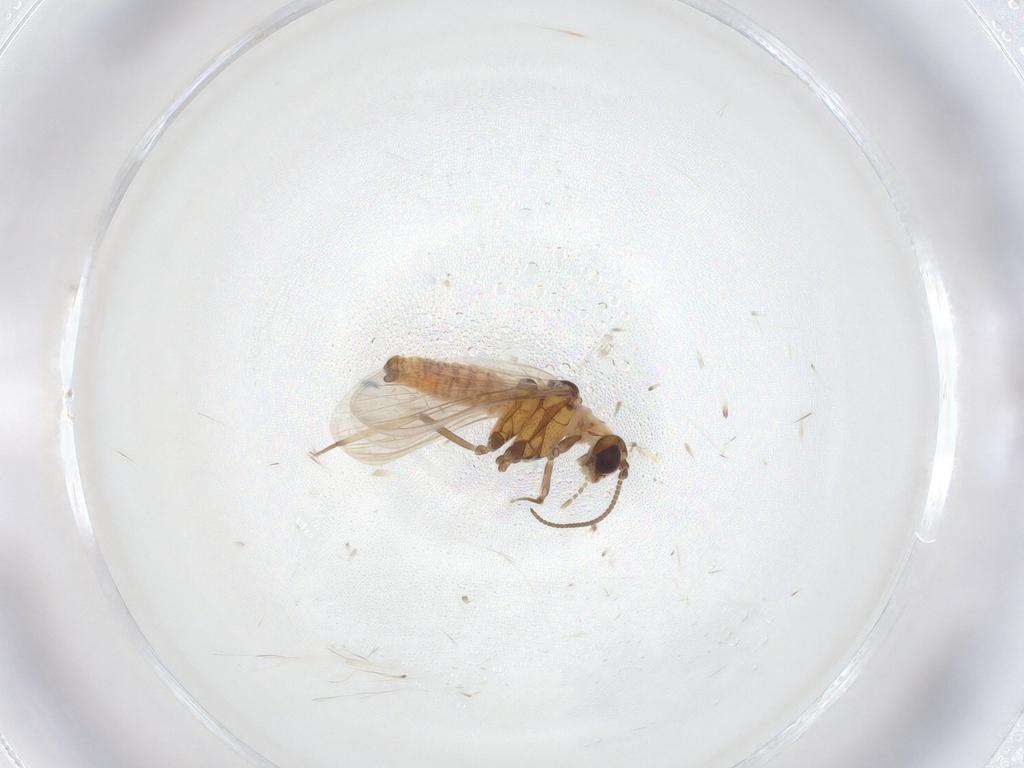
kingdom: Animalia
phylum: Arthropoda
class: Insecta
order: Neuroptera
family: Coniopterygidae
